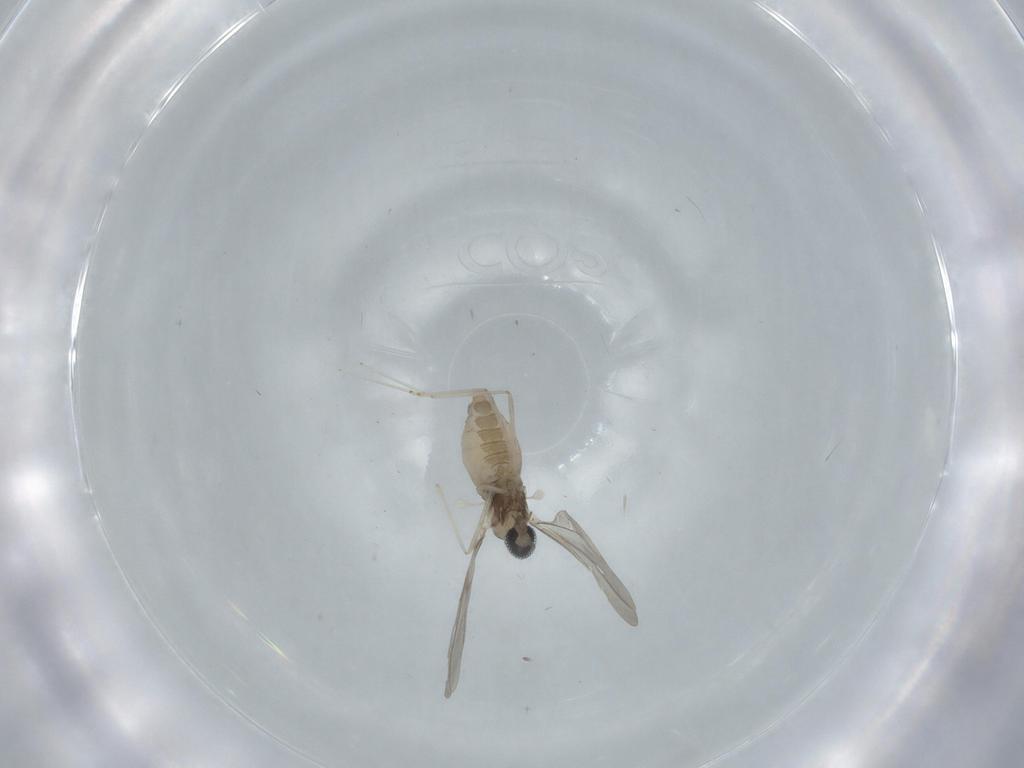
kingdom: Animalia
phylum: Arthropoda
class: Insecta
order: Diptera
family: Cecidomyiidae
